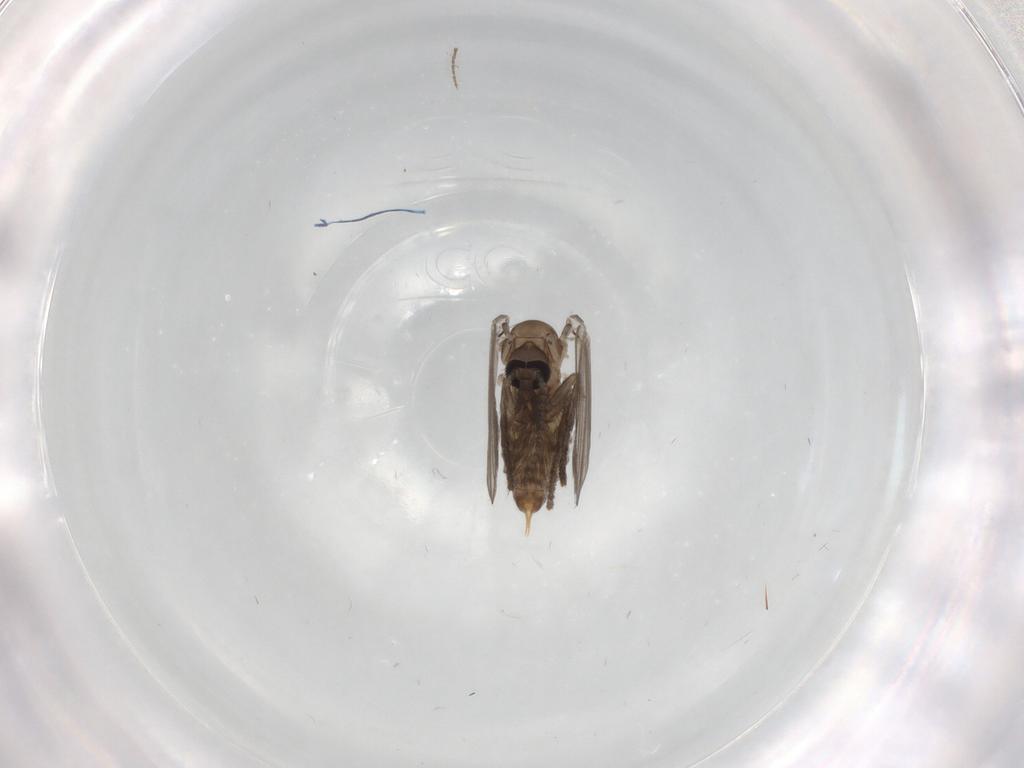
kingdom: Animalia
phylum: Arthropoda
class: Insecta
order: Diptera
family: Psychodidae
